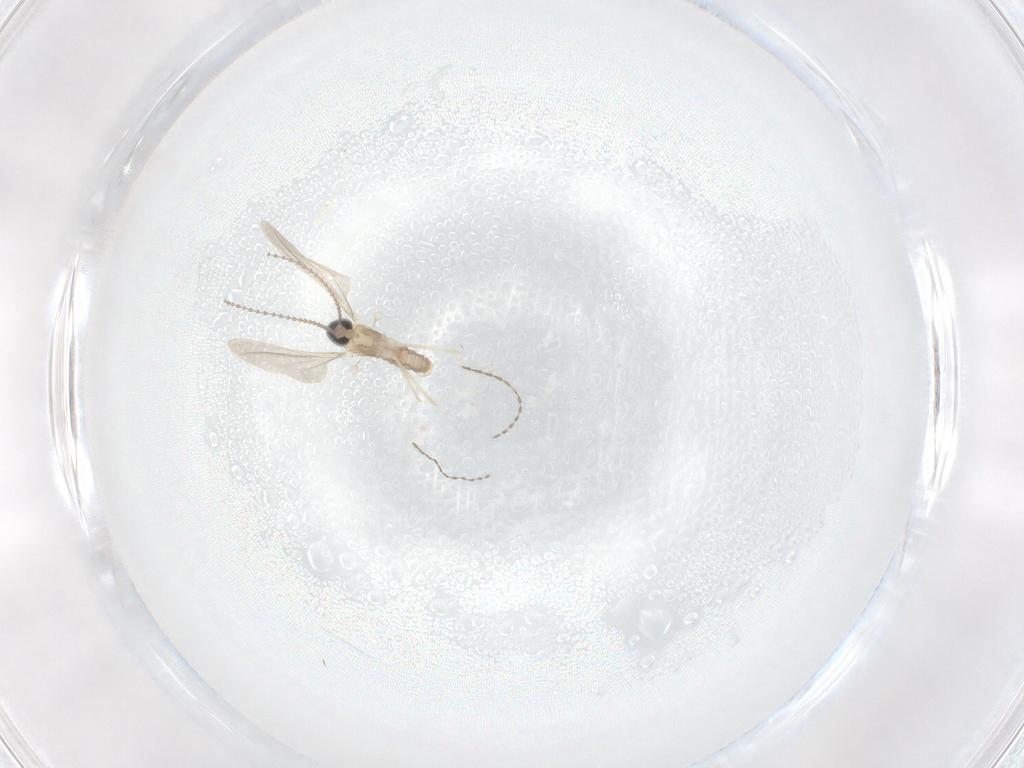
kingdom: Animalia
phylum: Arthropoda
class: Insecta
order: Diptera
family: Cecidomyiidae
